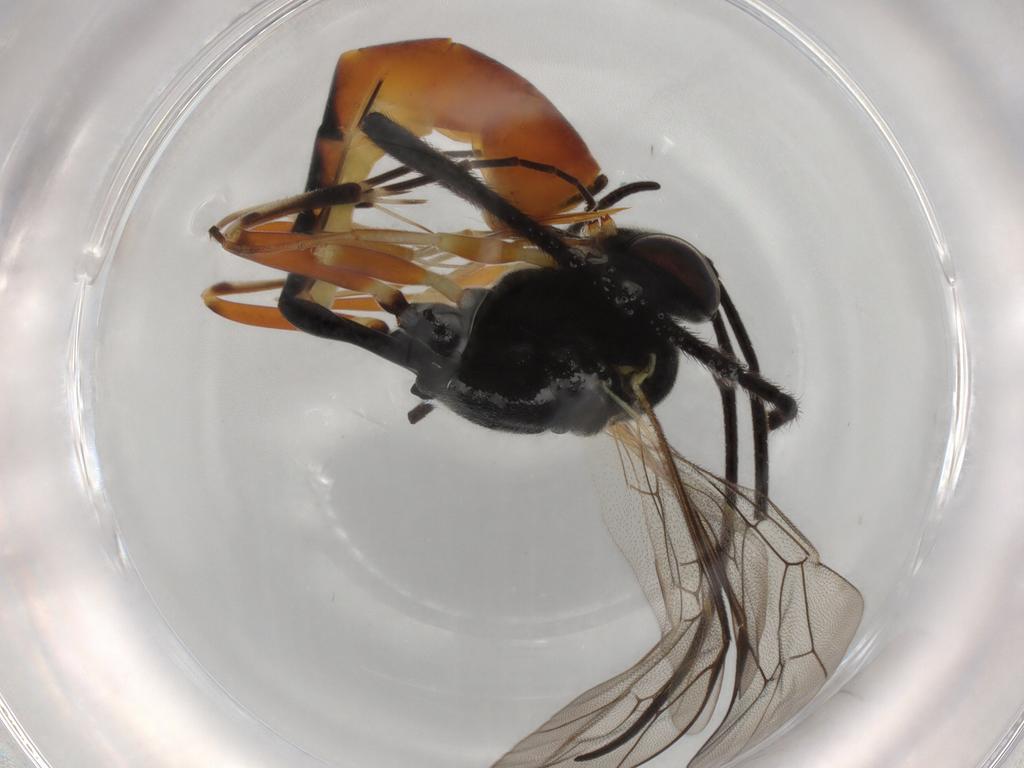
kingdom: Animalia
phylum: Arthropoda
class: Insecta
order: Hymenoptera
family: Ichneumonidae
